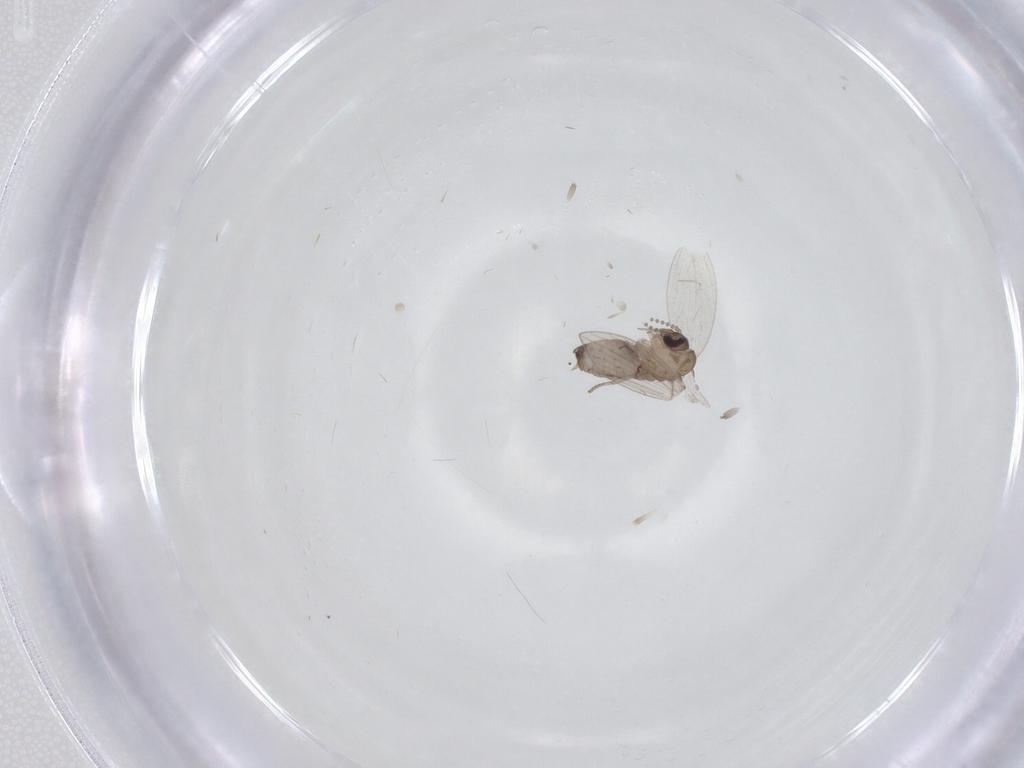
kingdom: Animalia
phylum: Arthropoda
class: Insecta
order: Diptera
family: Psychodidae
